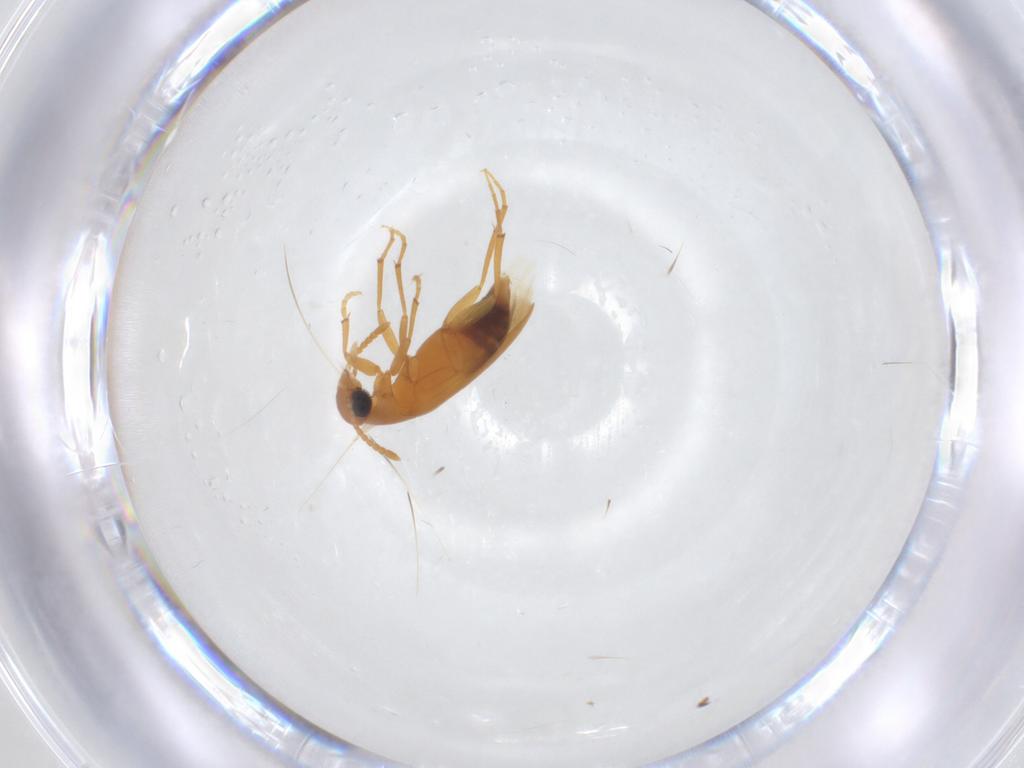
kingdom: Animalia
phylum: Arthropoda
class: Insecta
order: Coleoptera
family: Scraptiidae
